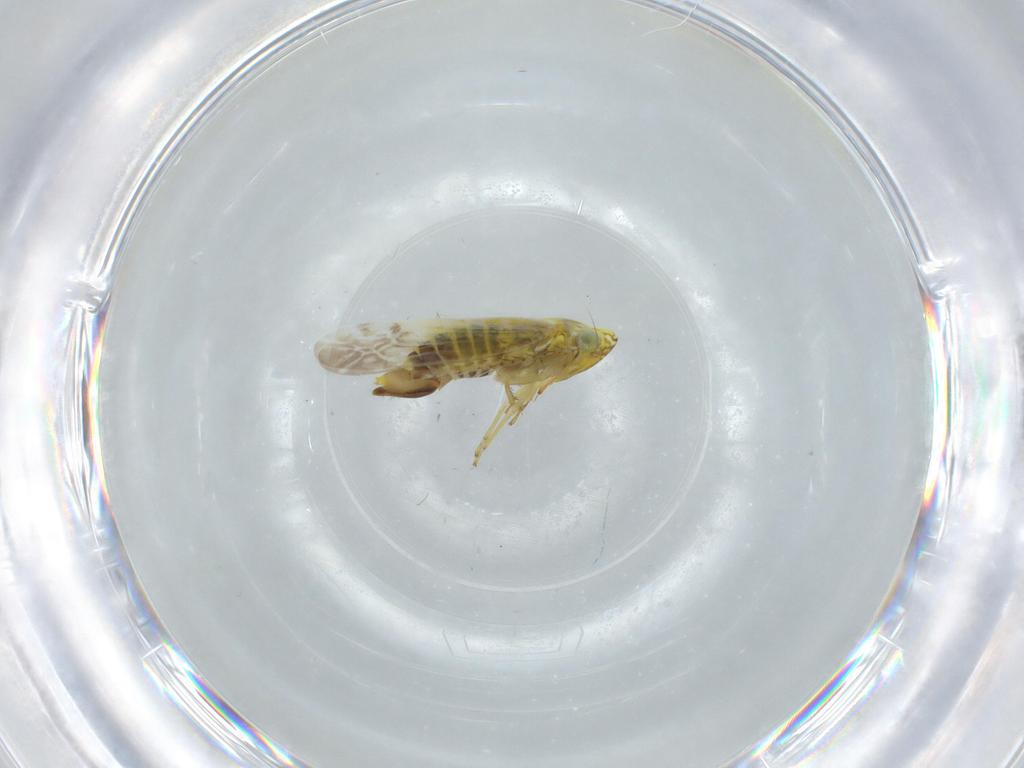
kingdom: Animalia
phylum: Arthropoda
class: Insecta
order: Hemiptera
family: Cicadellidae
